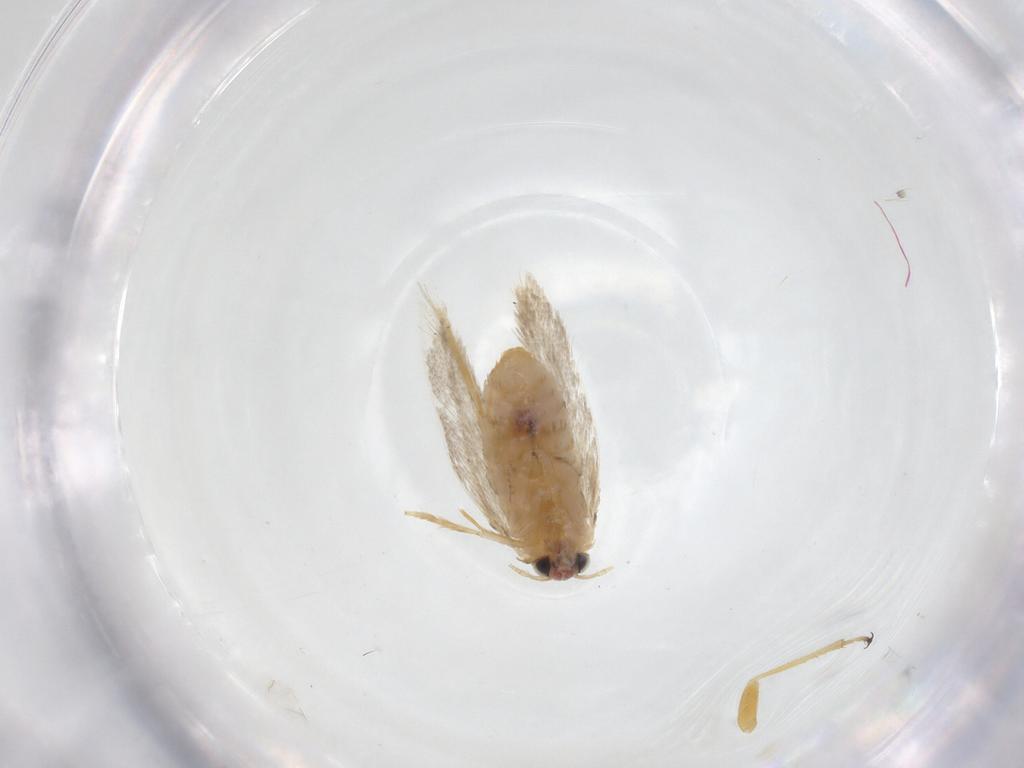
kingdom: Animalia
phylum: Arthropoda
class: Insecta
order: Lepidoptera
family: Nepticulidae
